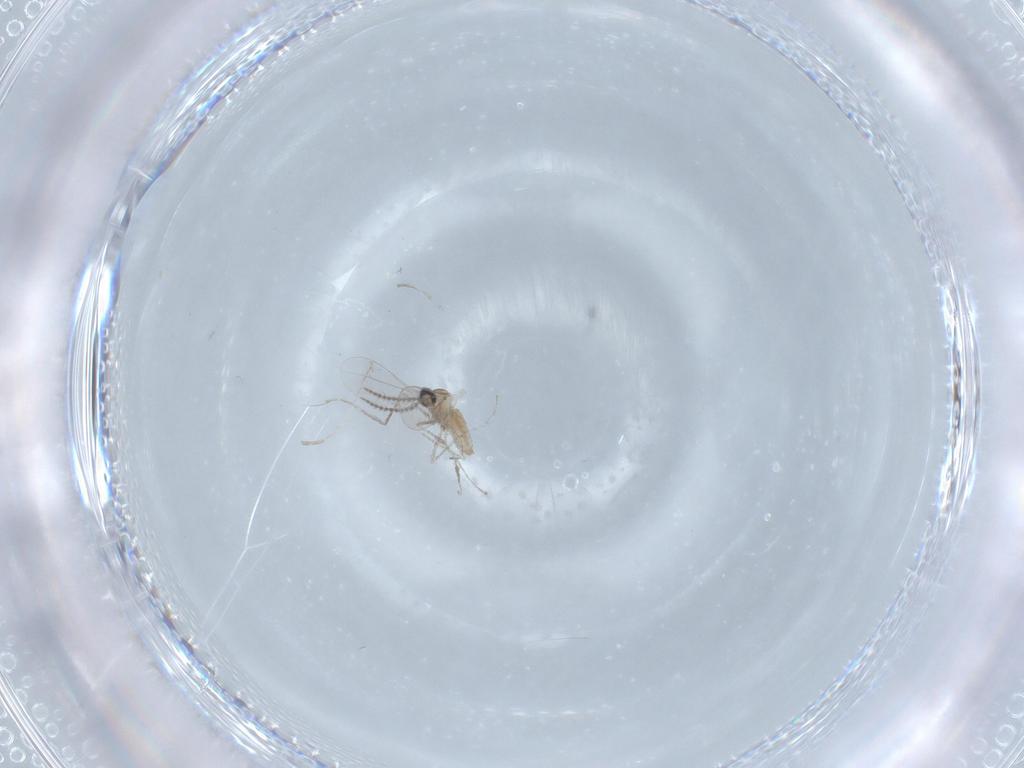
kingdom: Animalia
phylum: Arthropoda
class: Insecta
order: Diptera
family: Cecidomyiidae
